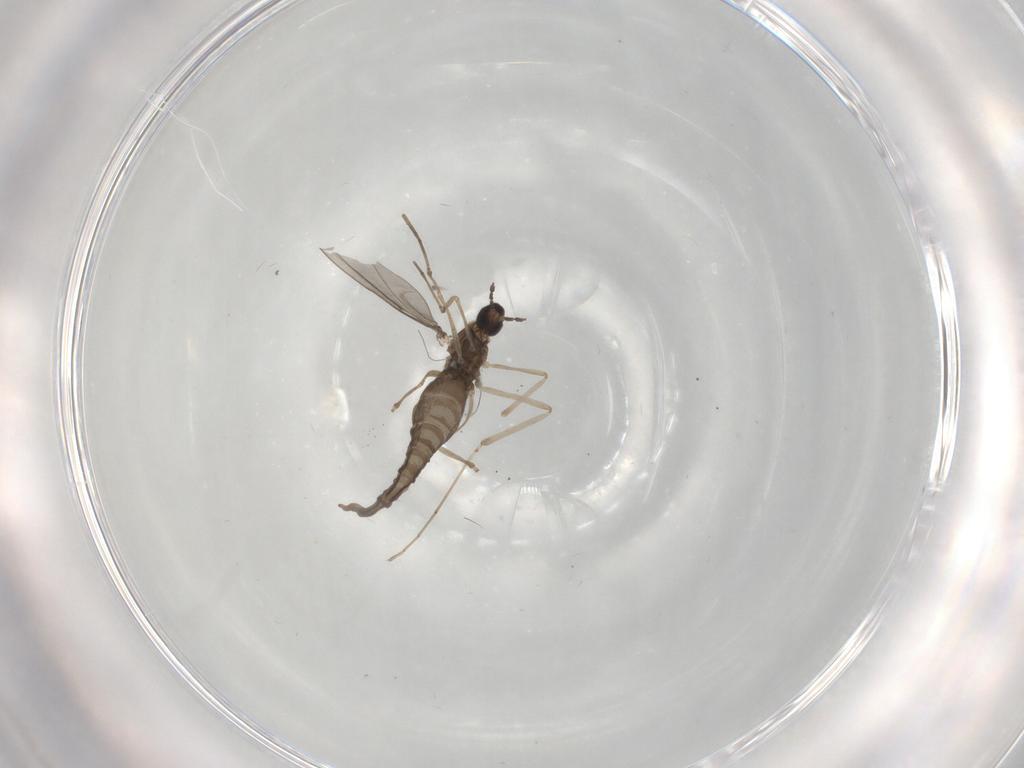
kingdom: Animalia
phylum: Arthropoda
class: Insecta
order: Diptera
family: Cecidomyiidae
